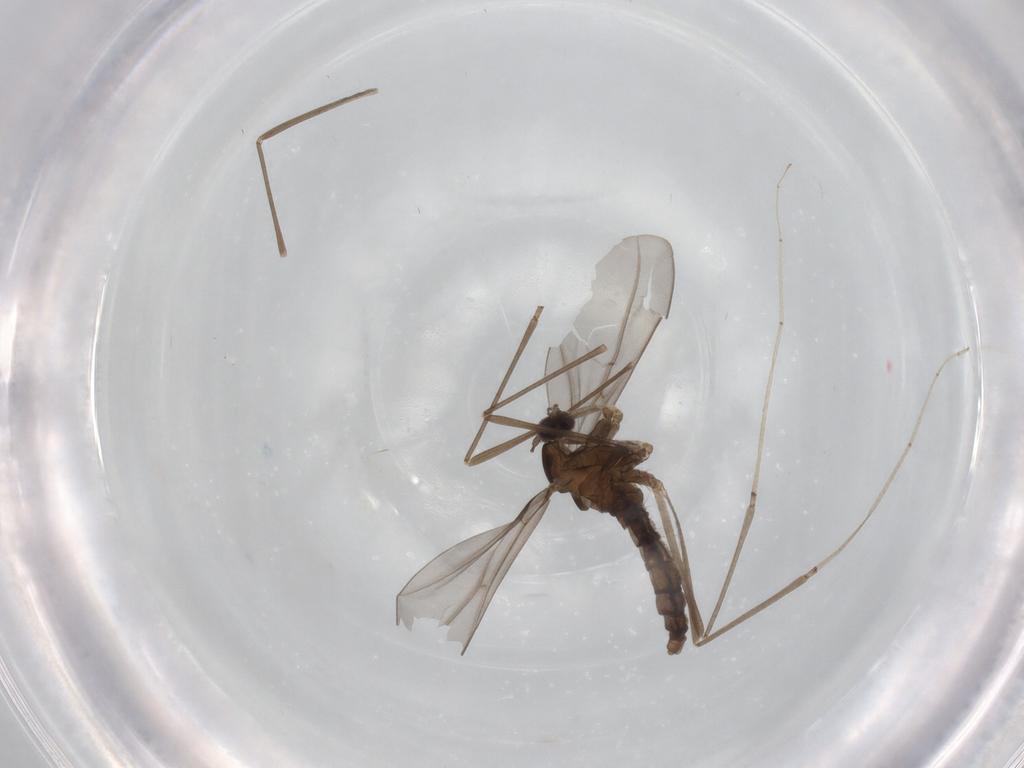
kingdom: Animalia
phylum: Arthropoda
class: Insecta
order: Diptera
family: Cecidomyiidae
